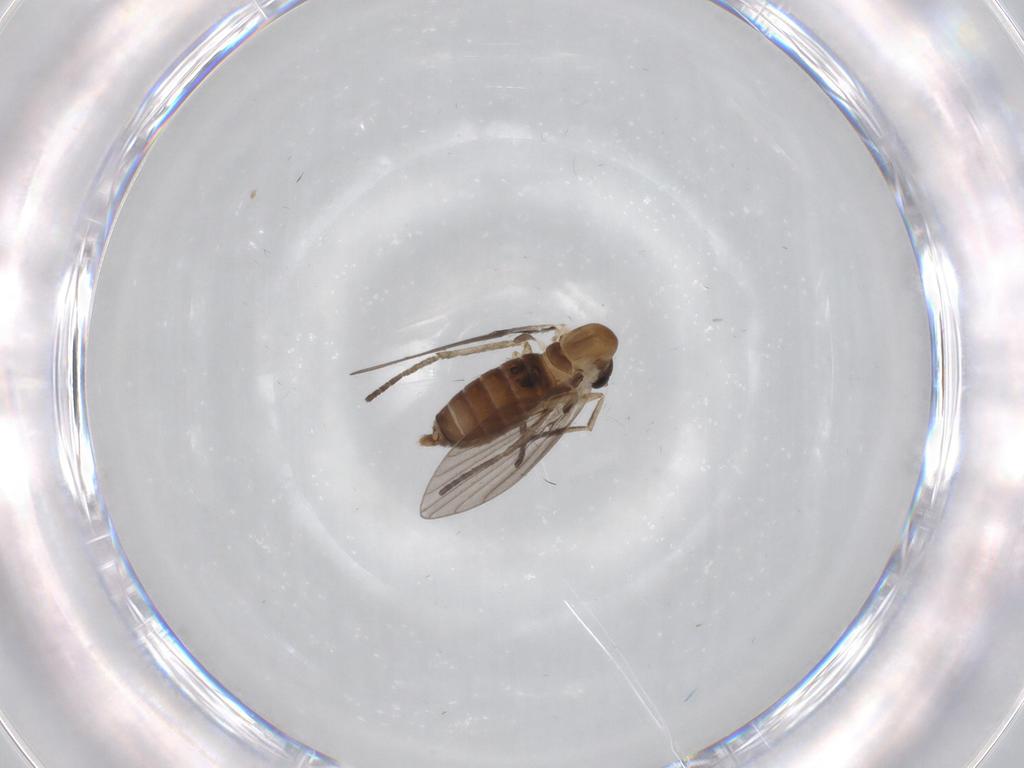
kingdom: Animalia
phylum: Arthropoda
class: Insecta
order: Diptera
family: Chironomidae
